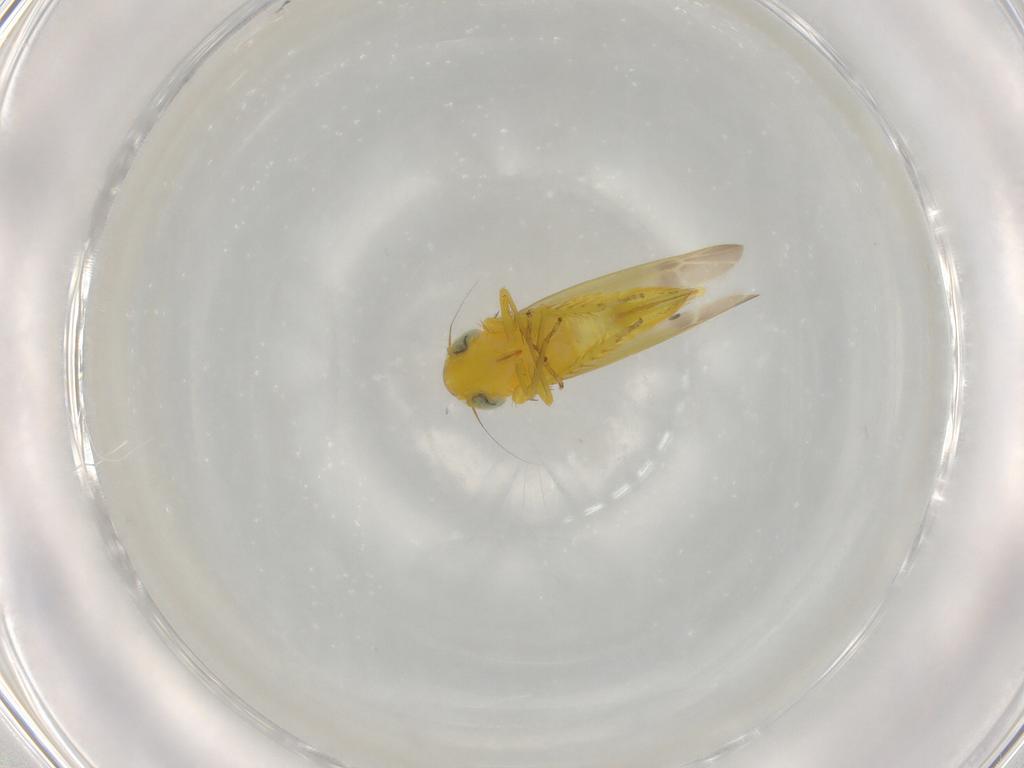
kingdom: Animalia
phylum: Arthropoda
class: Insecta
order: Hemiptera
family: Cicadellidae
